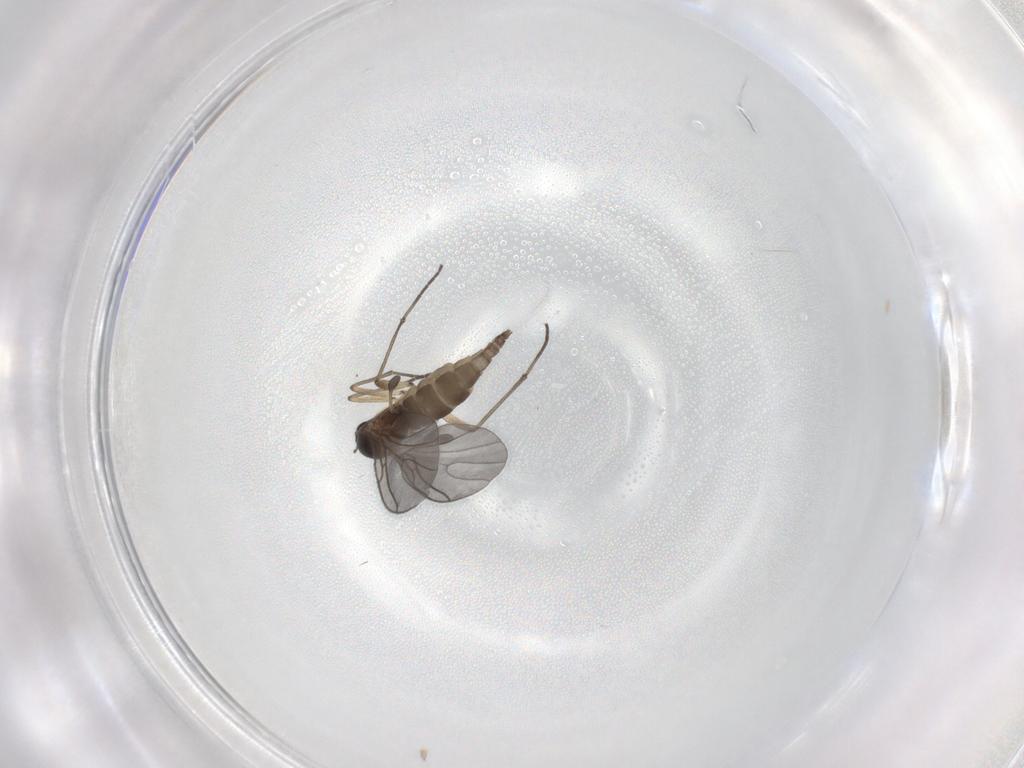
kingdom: Animalia
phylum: Arthropoda
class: Insecta
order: Diptera
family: Sciaridae
